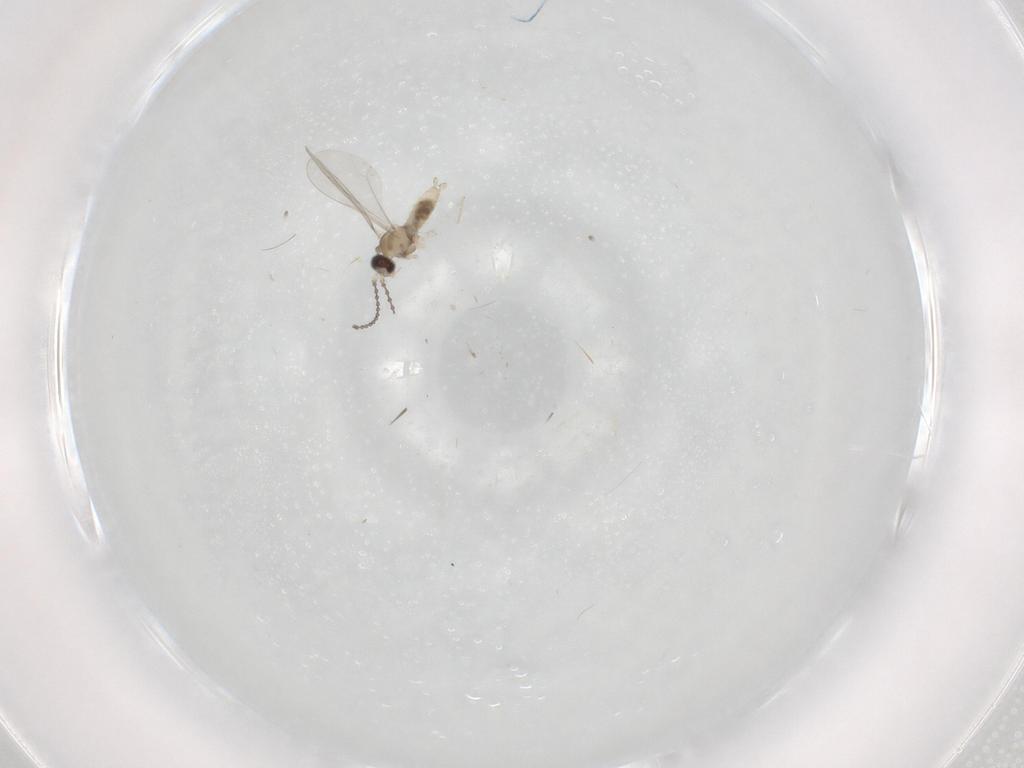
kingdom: Animalia
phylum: Arthropoda
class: Insecta
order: Diptera
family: Cecidomyiidae
